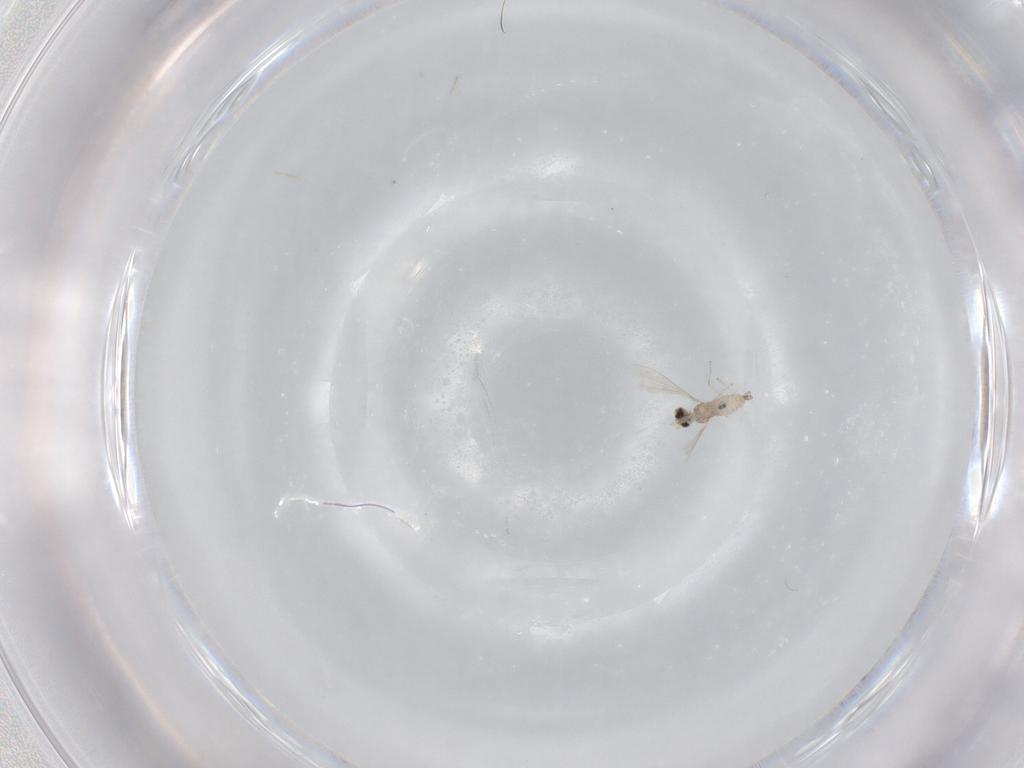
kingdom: Animalia
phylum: Arthropoda
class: Insecta
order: Diptera
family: Cecidomyiidae
